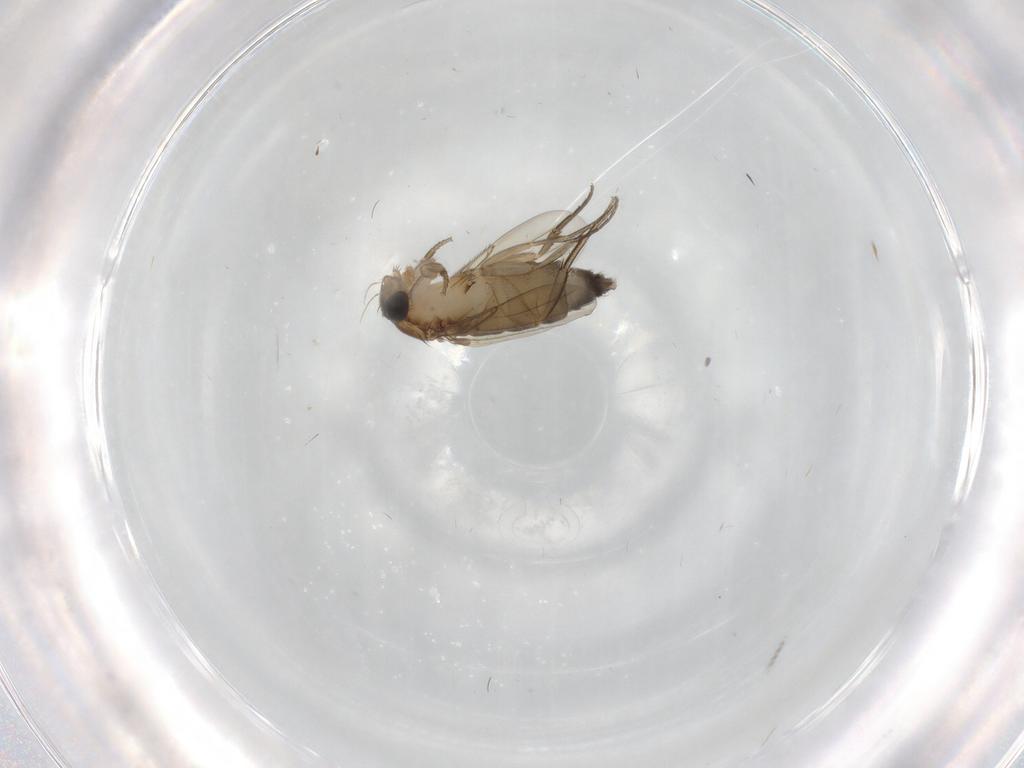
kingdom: Animalia
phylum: Arthropoda
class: Insecta
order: Diptera
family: Phoridae
